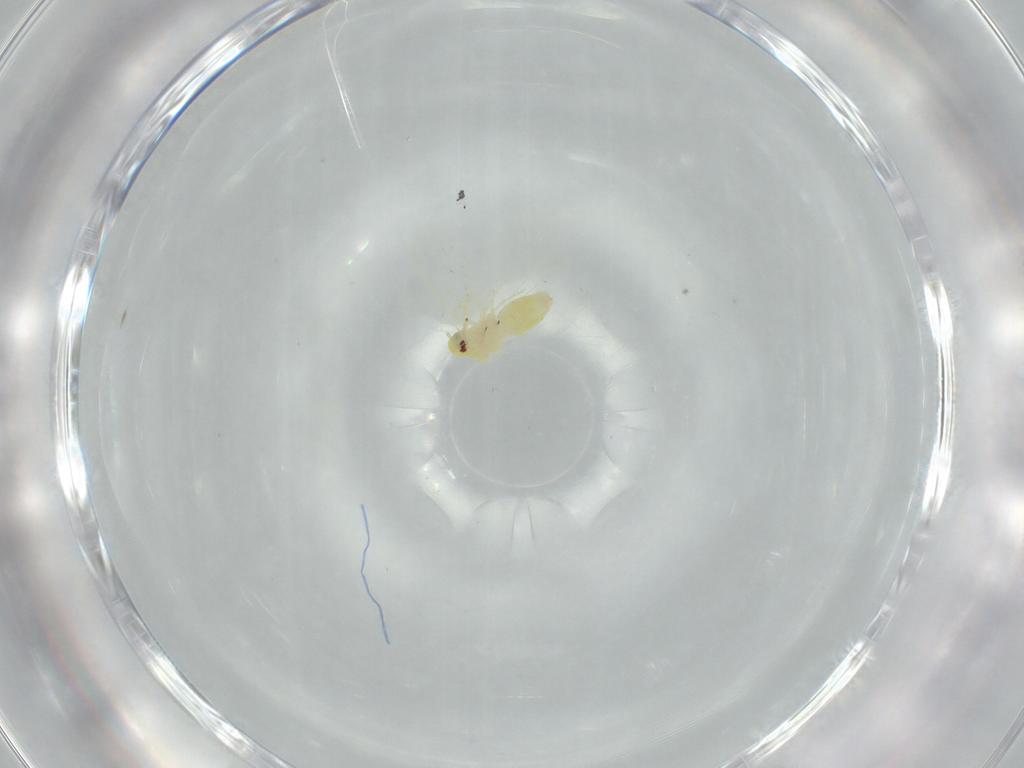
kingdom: Animalia
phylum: Arthropoda
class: Insecta
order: Hemiptera
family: Aleyrodidae
